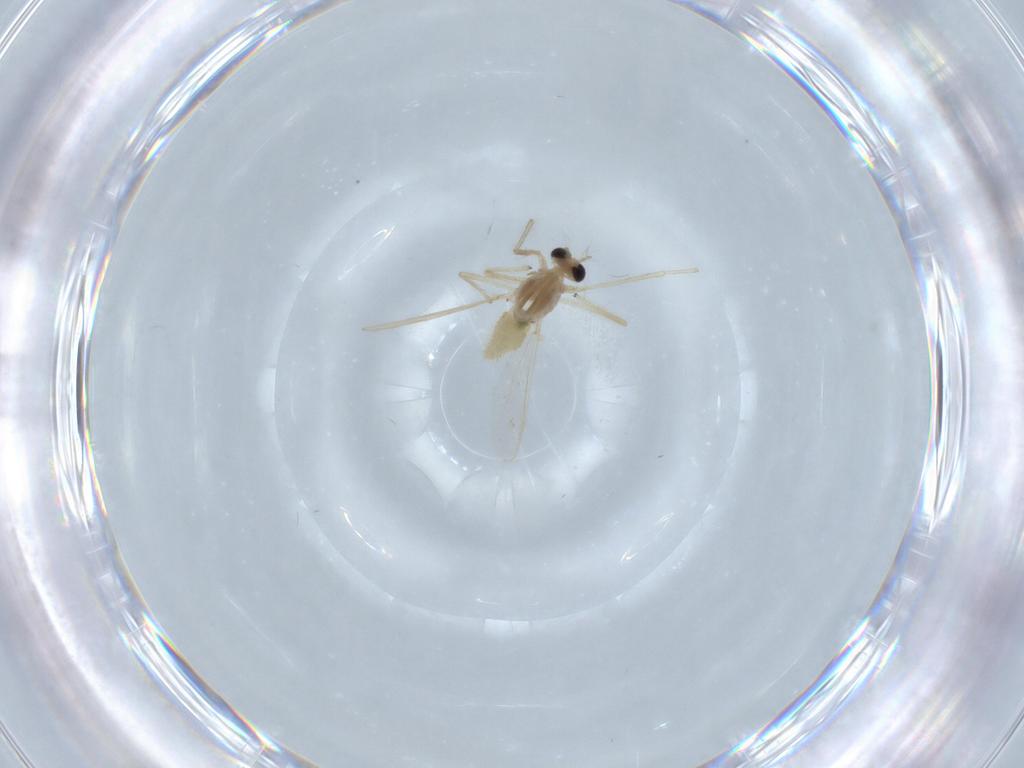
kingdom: Animalia
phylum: Arthropoda
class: Insecta
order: Diptera
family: Chironomidae
